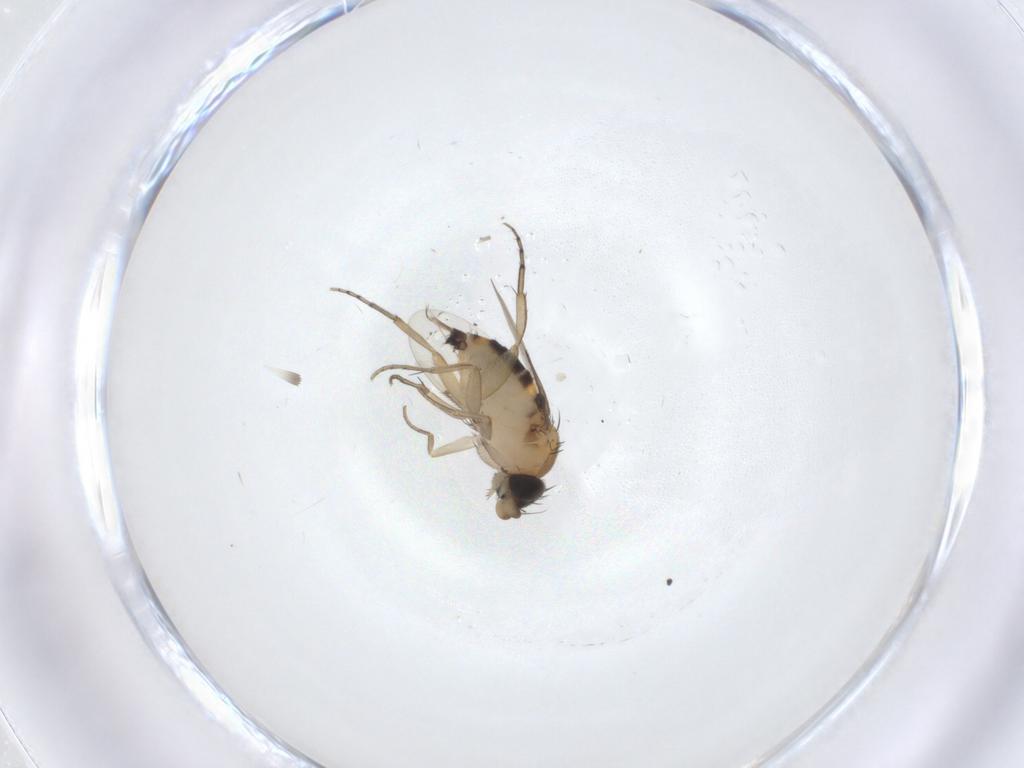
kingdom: Animalia
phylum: Arthropoda
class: Insecta
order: Diptera
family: Phoridae
